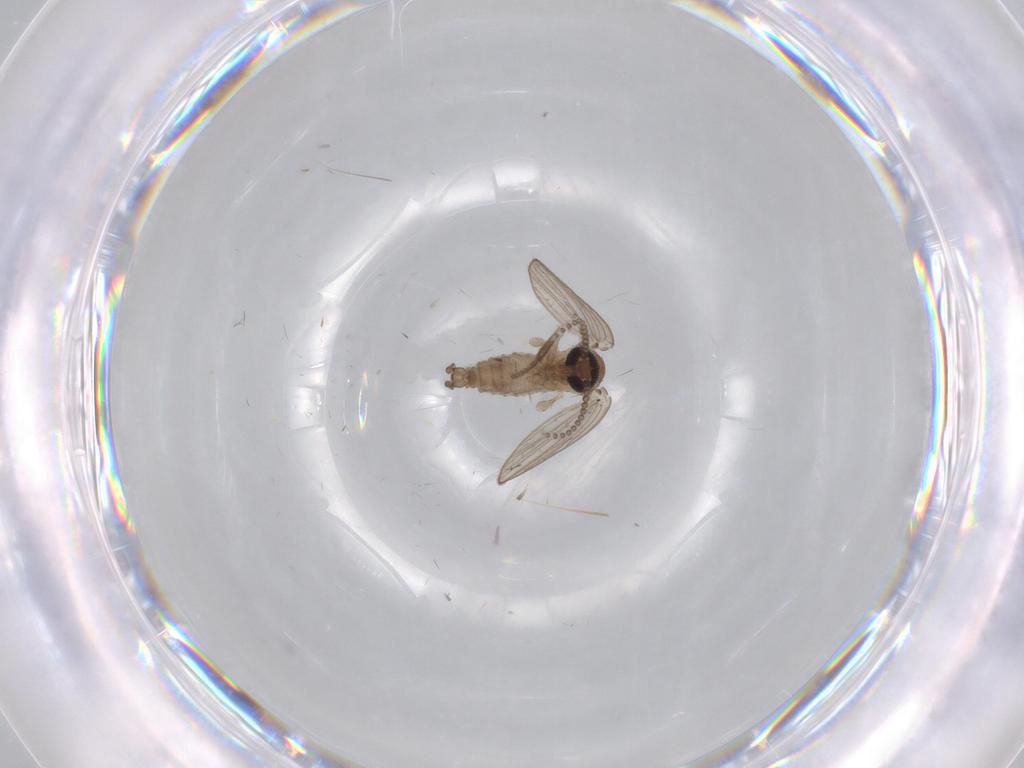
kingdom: Animalia
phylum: Arthropoda
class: Insecta
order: Diptera
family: Psychodidae
